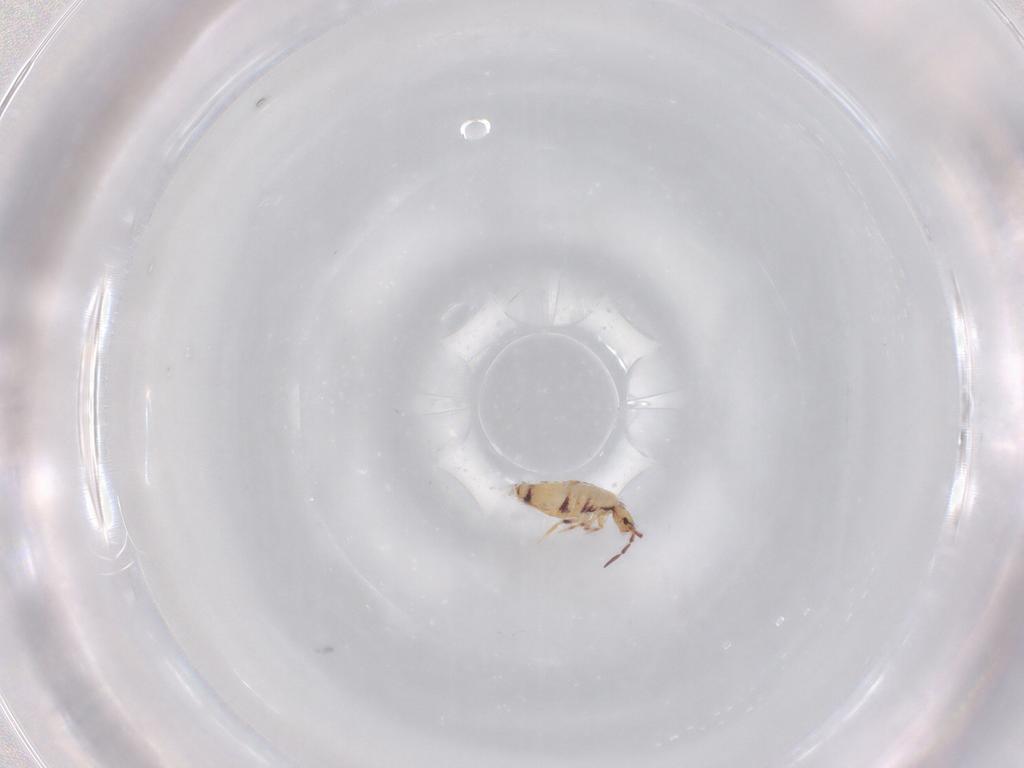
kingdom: Animalia
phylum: Arthropoda
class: Collembola
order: Entomobryomorpha
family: Entomobryidae
